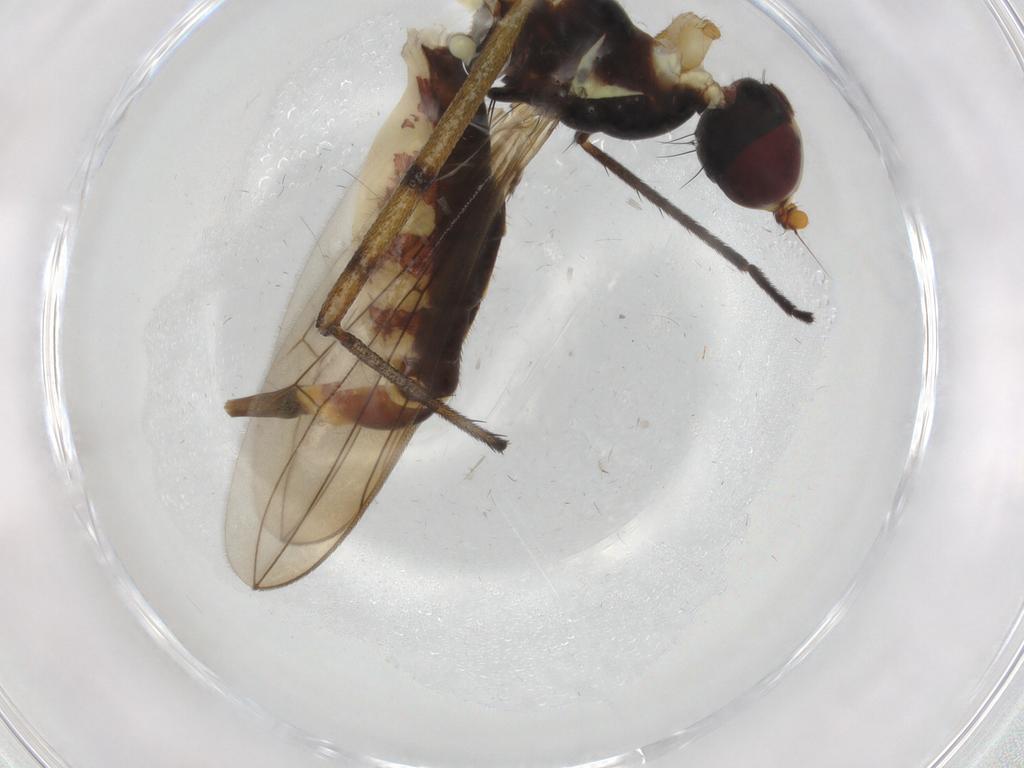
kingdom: Animalia
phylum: Arthropoda
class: Insecta
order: Diptera
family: Micropezidae
